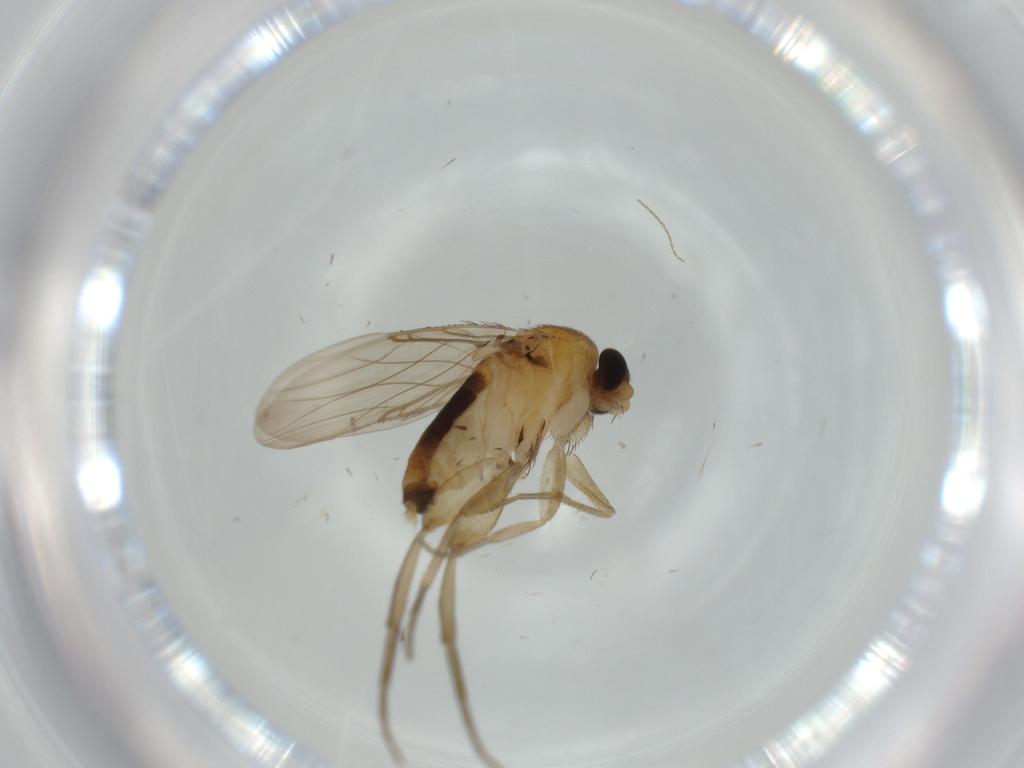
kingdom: Animalia
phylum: Arthropoda
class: Insecta
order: Diptera
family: Phoridae
